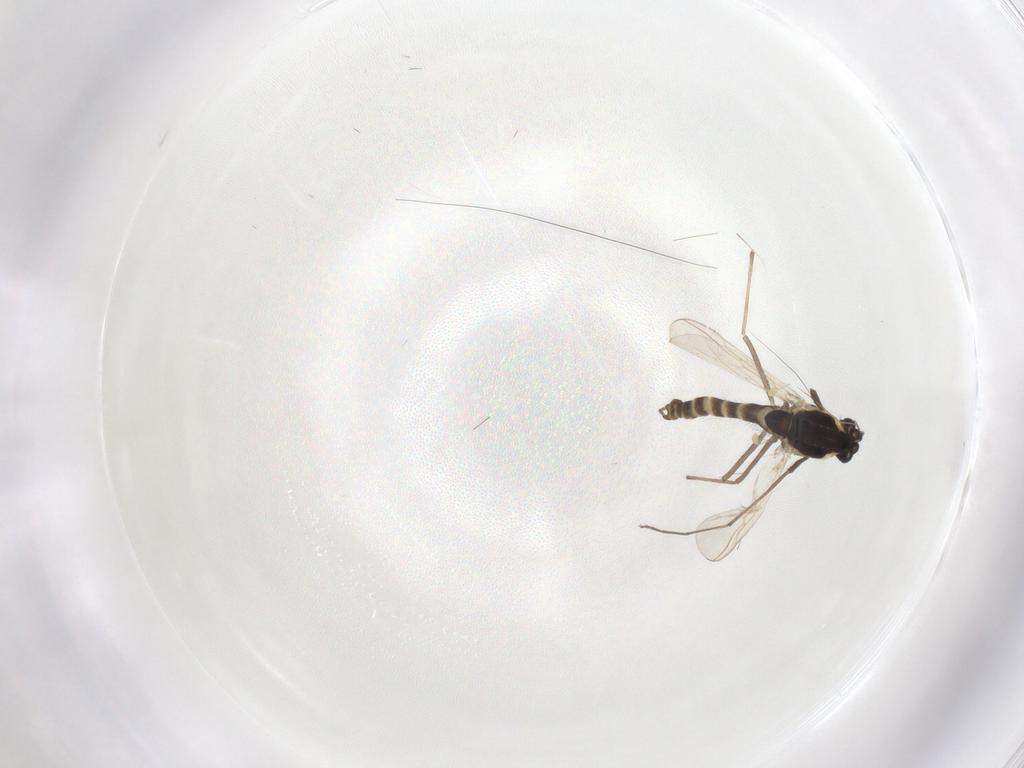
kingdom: Animalia
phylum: Arthropoda
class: Insecta
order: Diptera
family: Chironomidae
